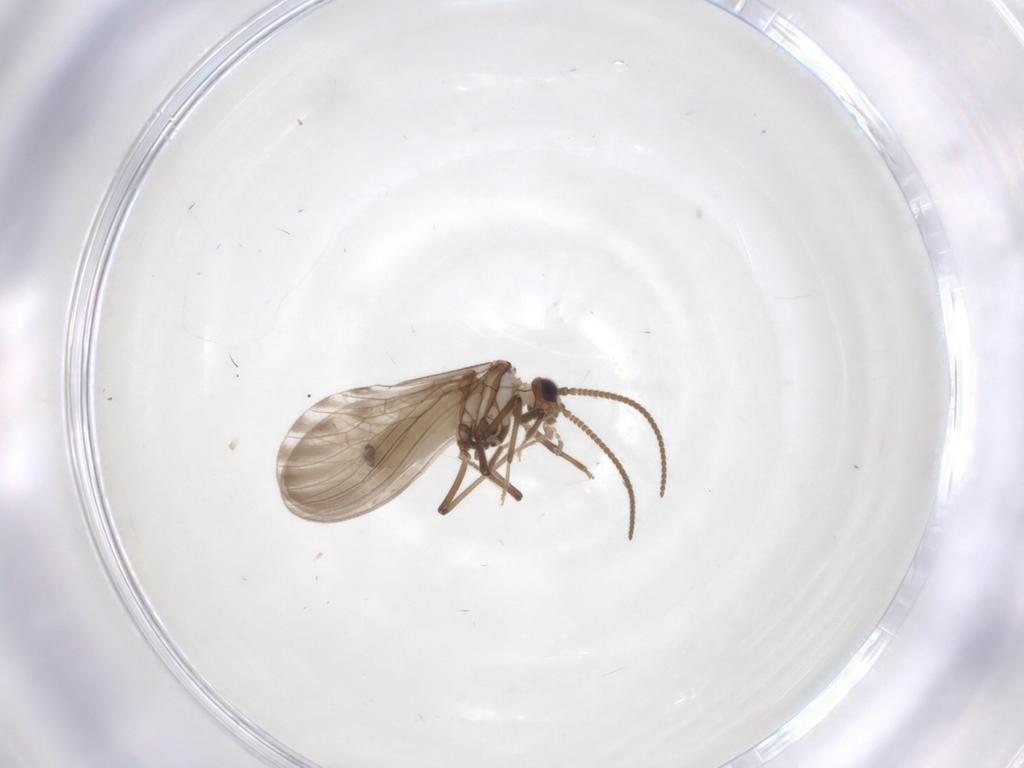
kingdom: Animalia
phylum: Arthropoda
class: Insecta
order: Neuroptera
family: Coniopterygidae
